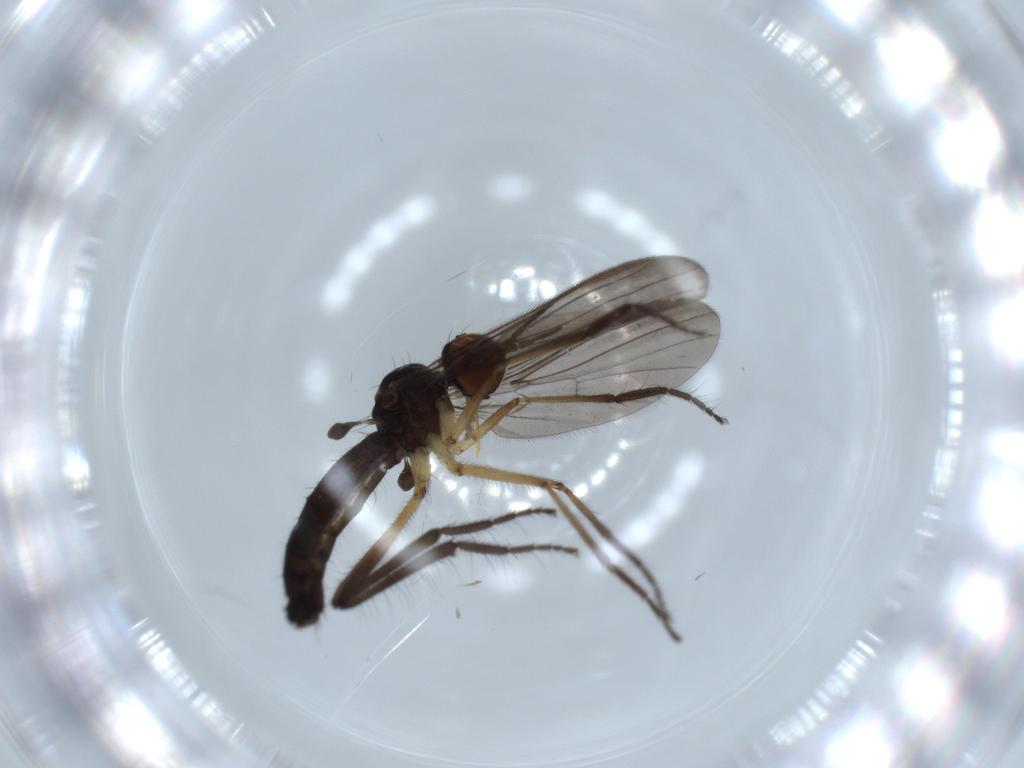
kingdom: Animalia
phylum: Arthropoda
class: Insecta
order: Diptera
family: Empididae
